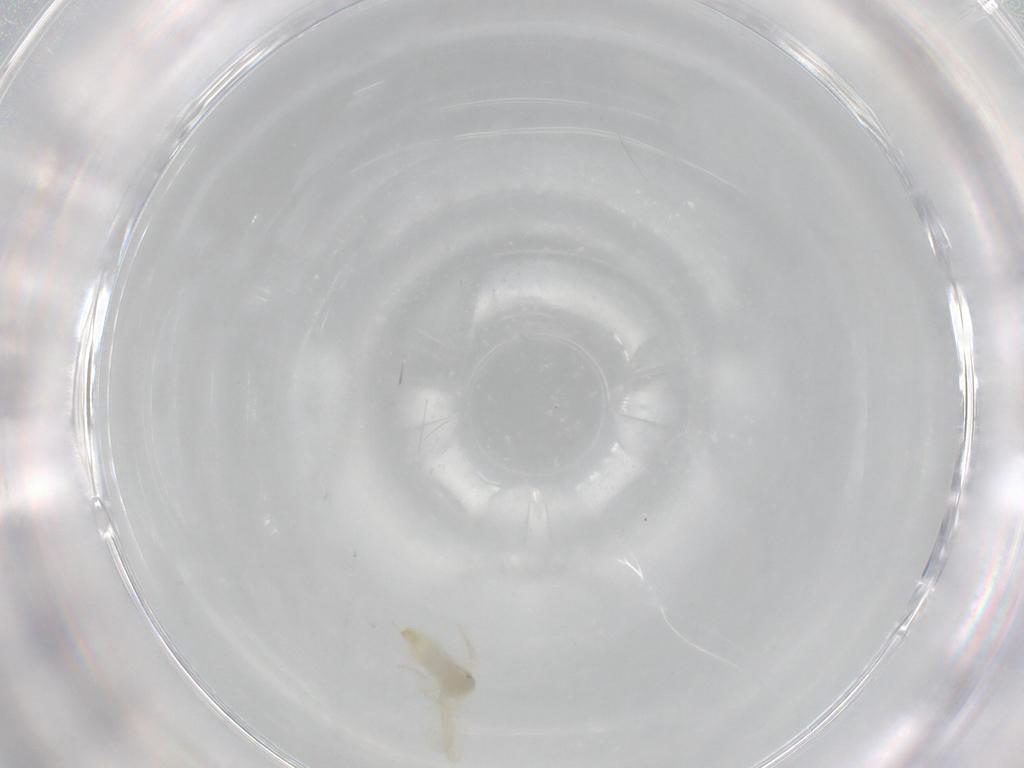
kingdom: Animalia
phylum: Arthropoda
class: Insecta
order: Hemiptera
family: Aleyrodidae
